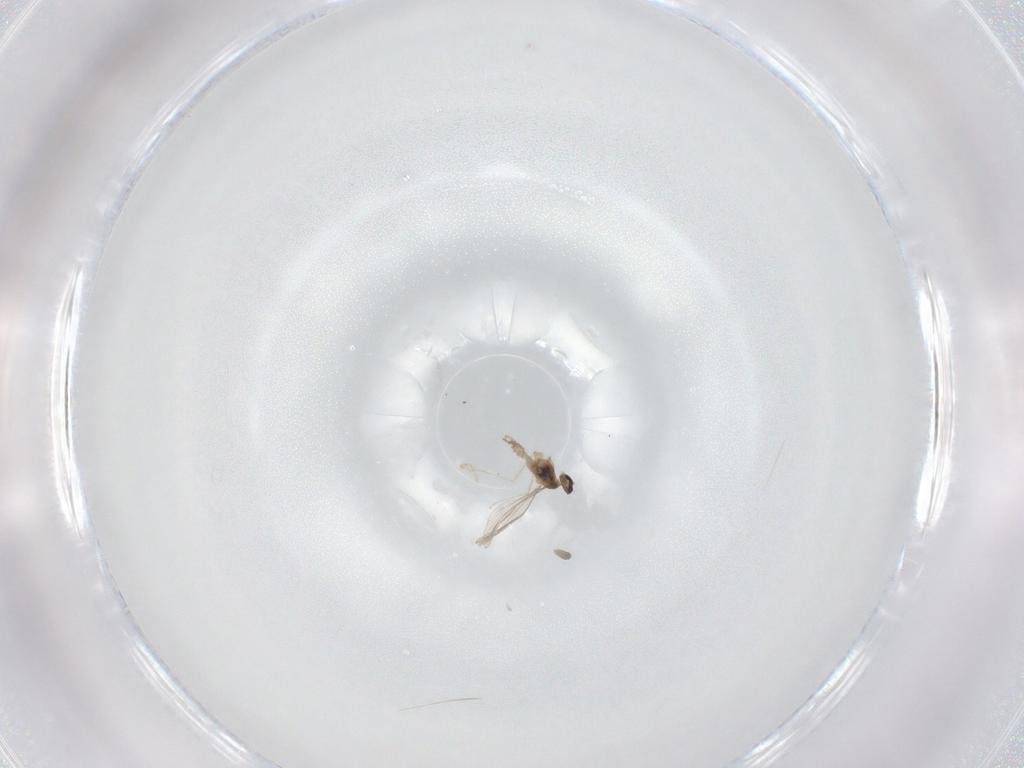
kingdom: Animalia
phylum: Arthropoda
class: Insecta
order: Diptera
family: Cecidomyiidae
